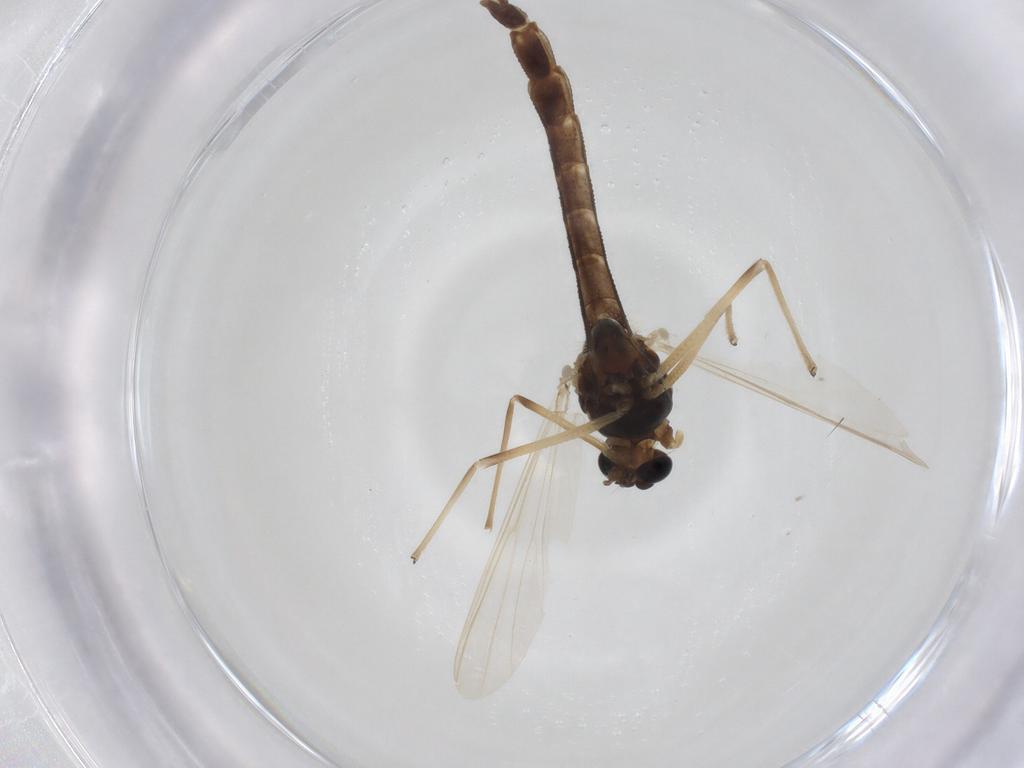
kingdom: Animalia
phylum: Arthropoda
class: Insecta
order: Diptera
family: Chironomidae
